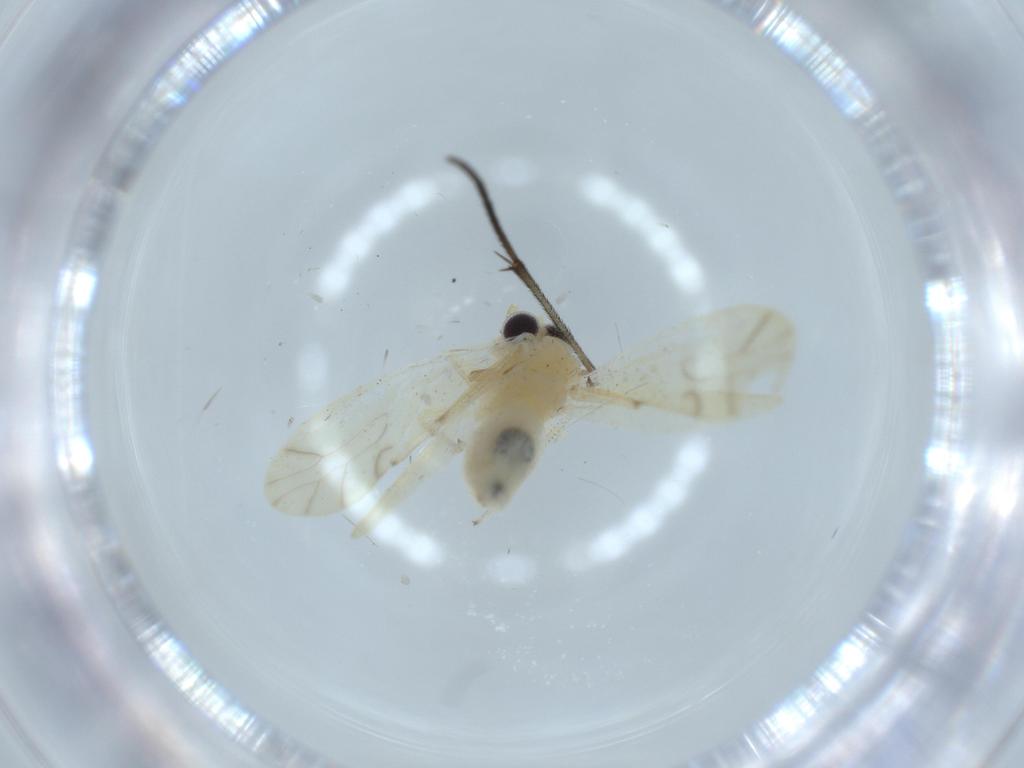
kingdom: Animalia
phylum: Arthropoda
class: Insecta
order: Psocodea
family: Caeciliusidae
